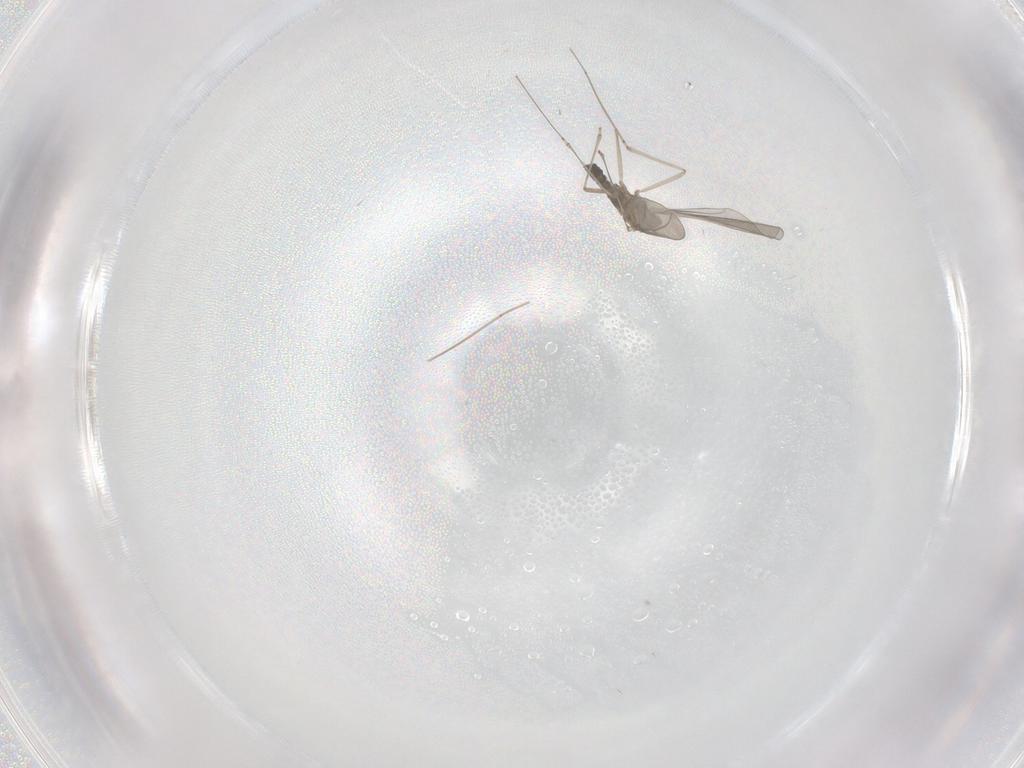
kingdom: Animalia
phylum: Arthropoda
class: Insecta
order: Diptera
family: Cecidomyiidae
